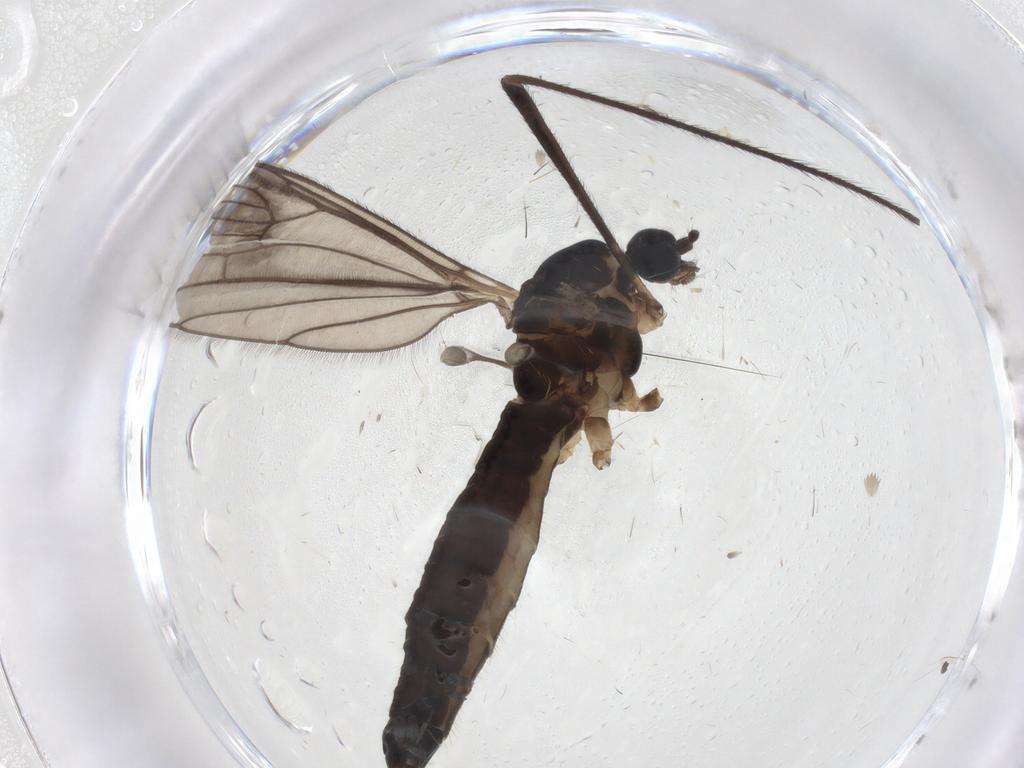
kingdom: Animalia
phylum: Arthropoda
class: Insecta
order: Diptera
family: Limoniidae
